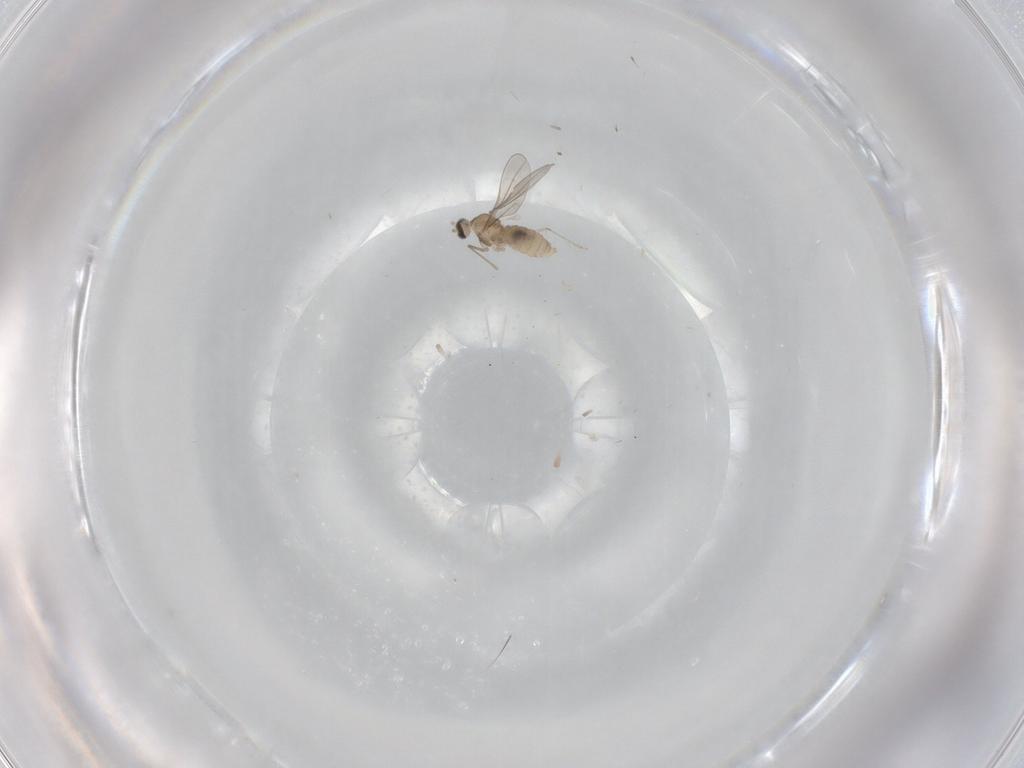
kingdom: Animalia
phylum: Arthropoda
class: Insecta
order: Diptera
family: Cecidomyiidae
